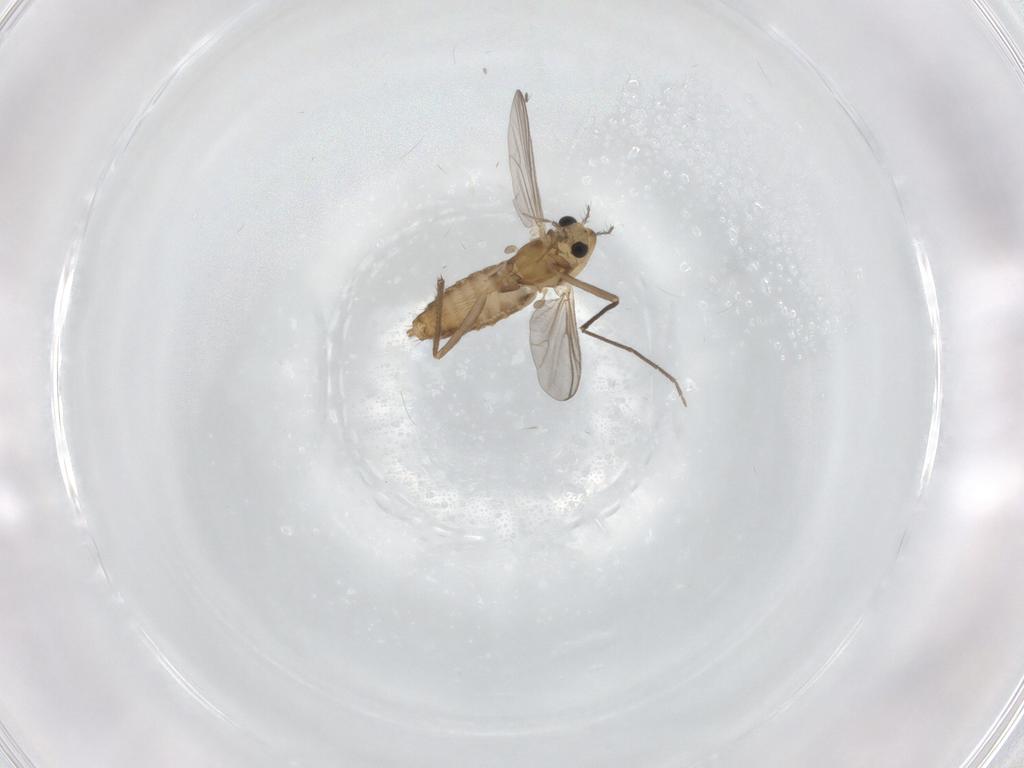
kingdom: Animalia
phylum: Arthropoda
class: Insecta
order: Diptera
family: Chironomidae
